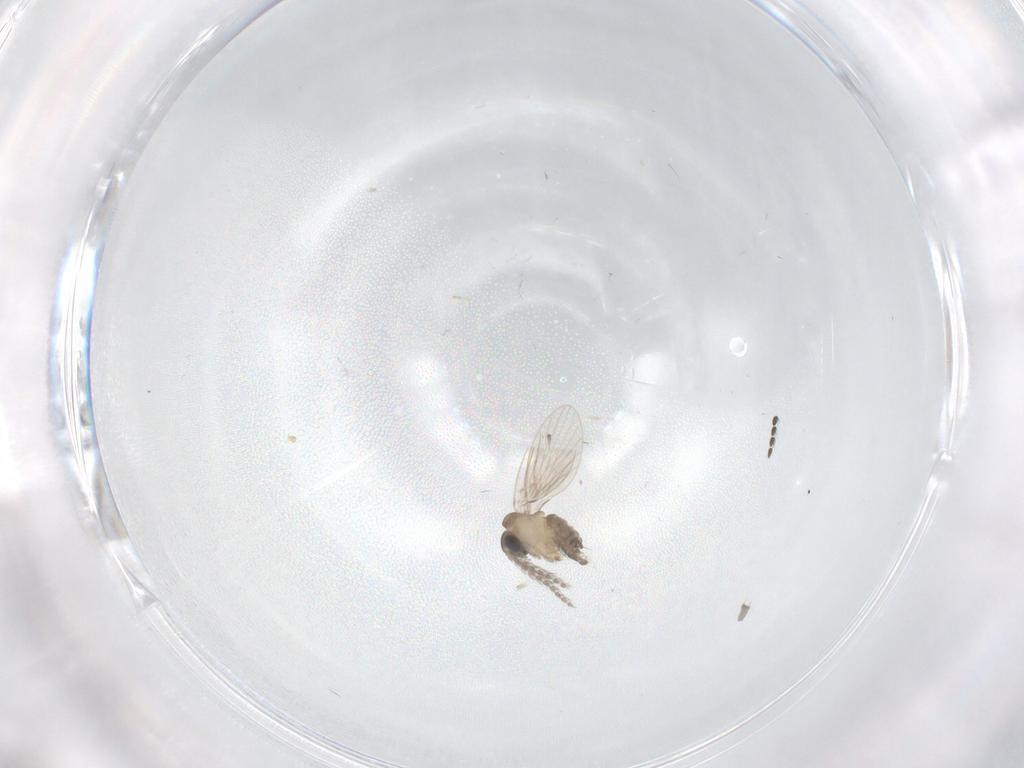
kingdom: Animalia
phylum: Arthropoda
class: Insecta
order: Diptera
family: Psychodidae
